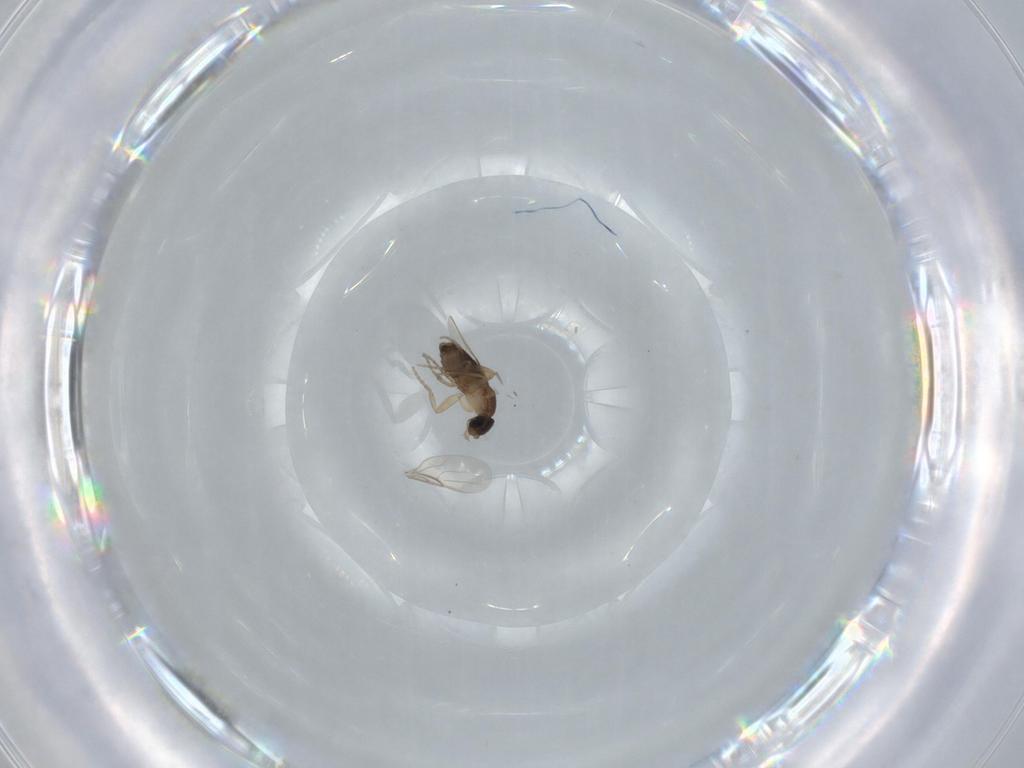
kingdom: Animalia
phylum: Arthropoda
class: Insecta
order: Diptera
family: Phoridae
